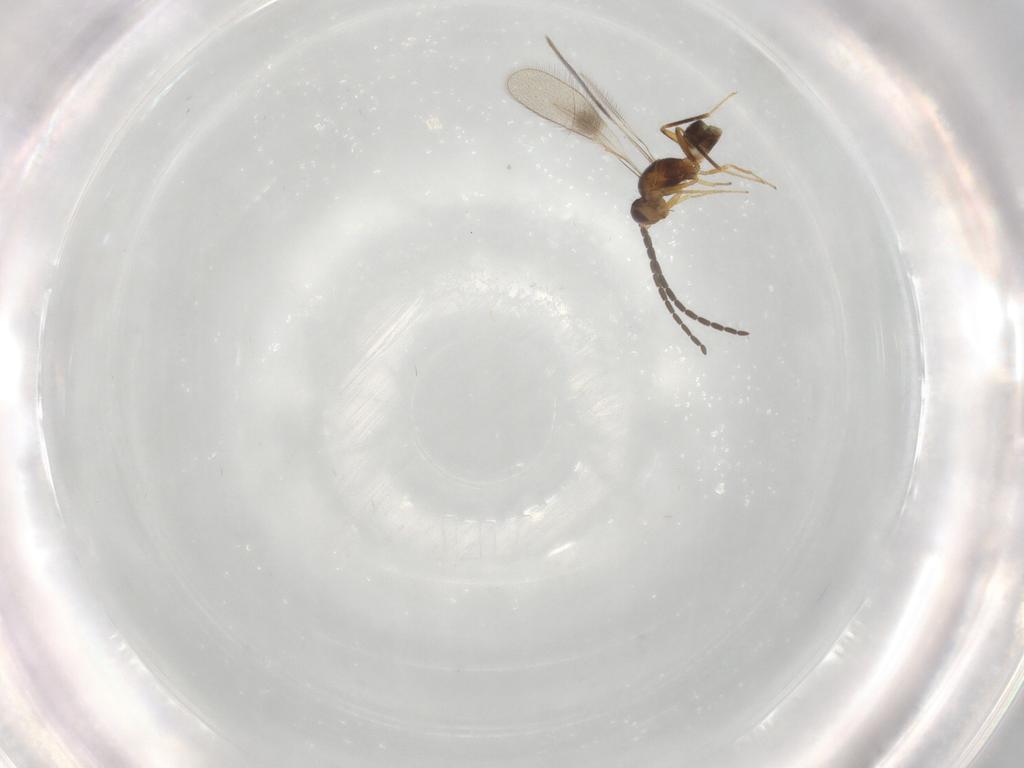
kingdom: Animalia
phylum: Arthropoda
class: Insecta
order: Hymenoptera
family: Mymaridae
